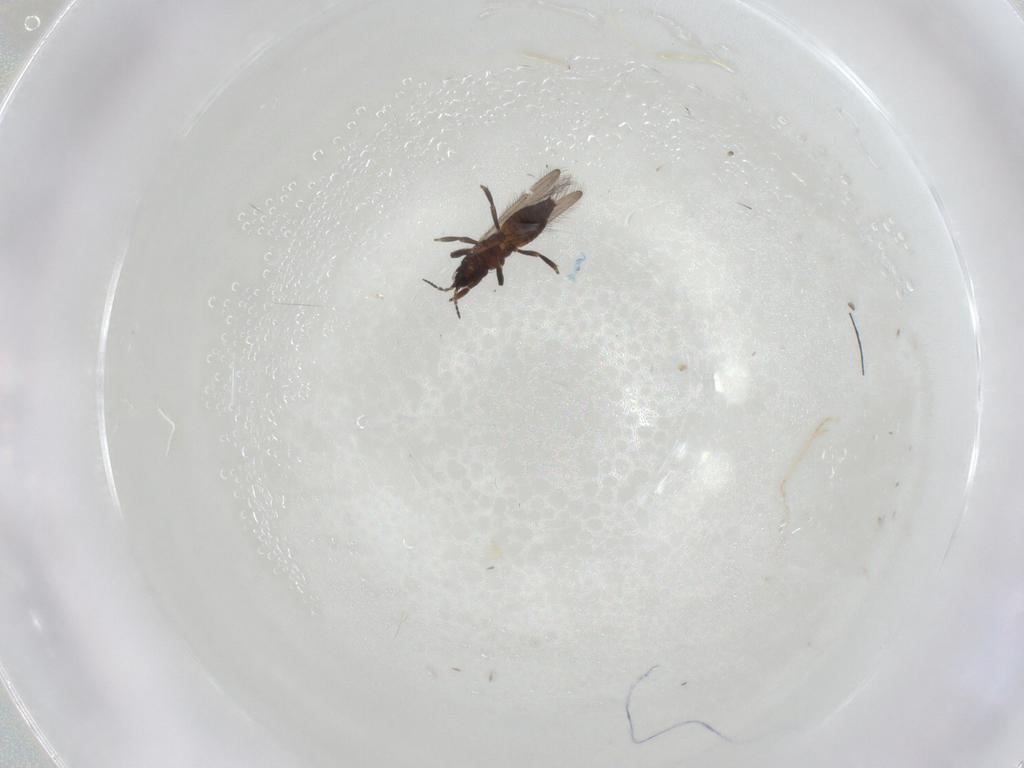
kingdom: Animalia
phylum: Arthropoda
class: Insecta
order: Thysanoptera
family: Melanthripidae
